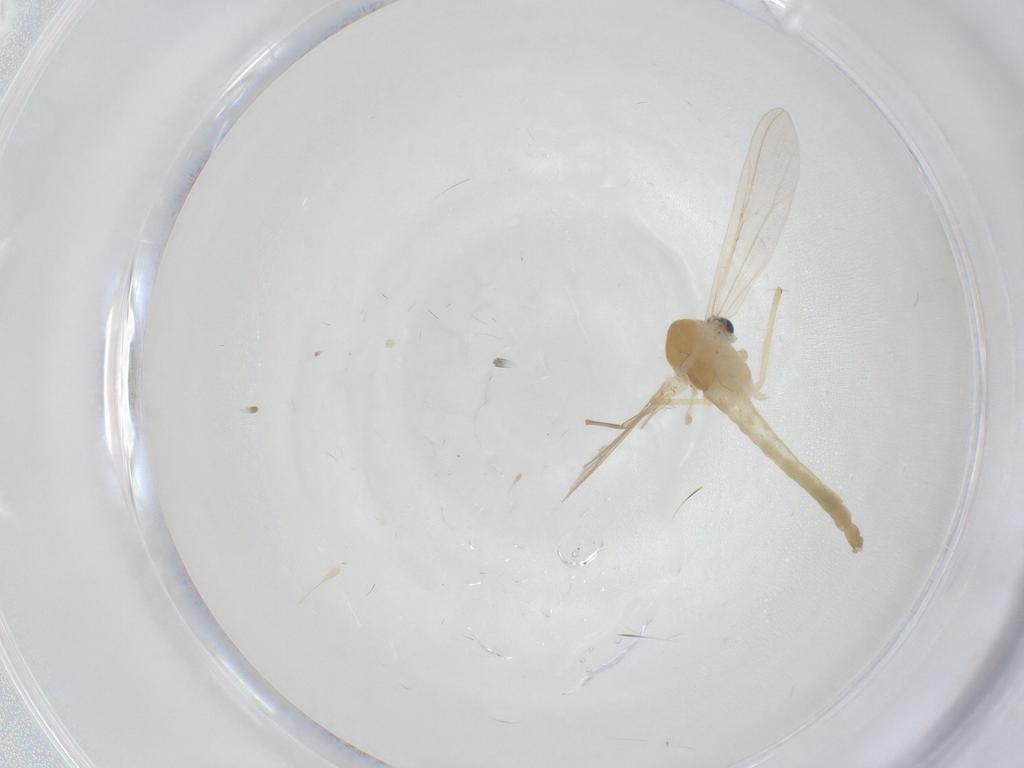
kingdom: Animalia
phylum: Arthropoda
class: Insecta
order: Diptera
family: Chironomidae
